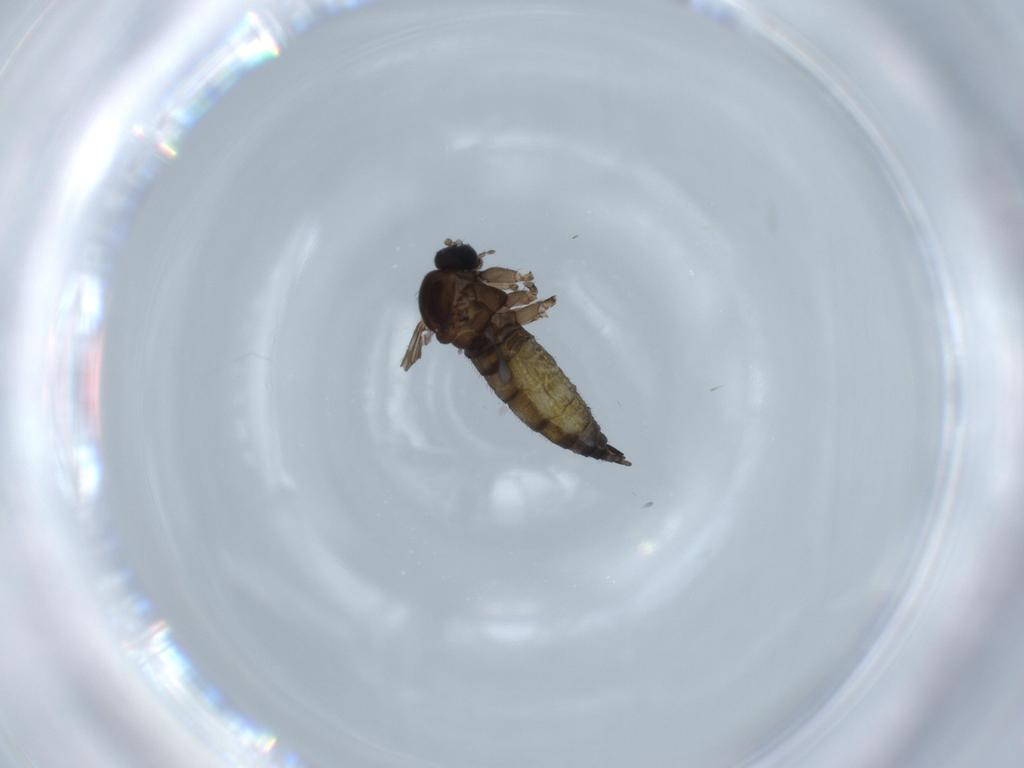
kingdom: Animalia
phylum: Arthropoda
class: Insecta
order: Diptera
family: Sciaridae
